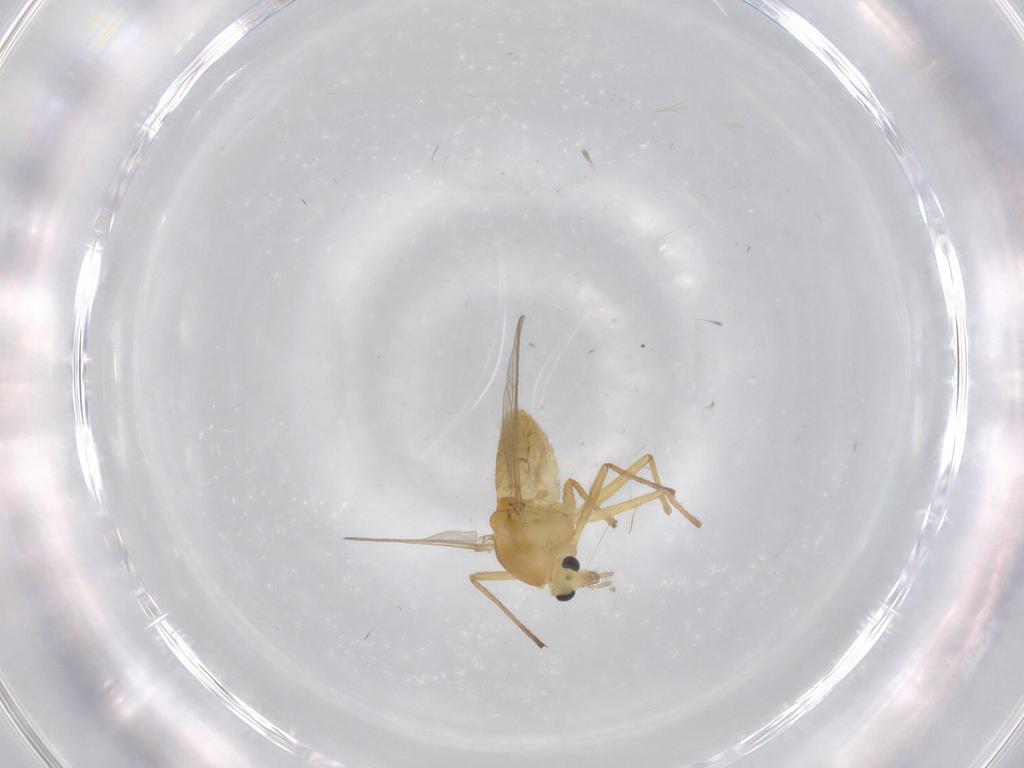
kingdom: Animalia
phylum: Arthropoda
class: Insecta
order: Diptera
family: Chironomidae
